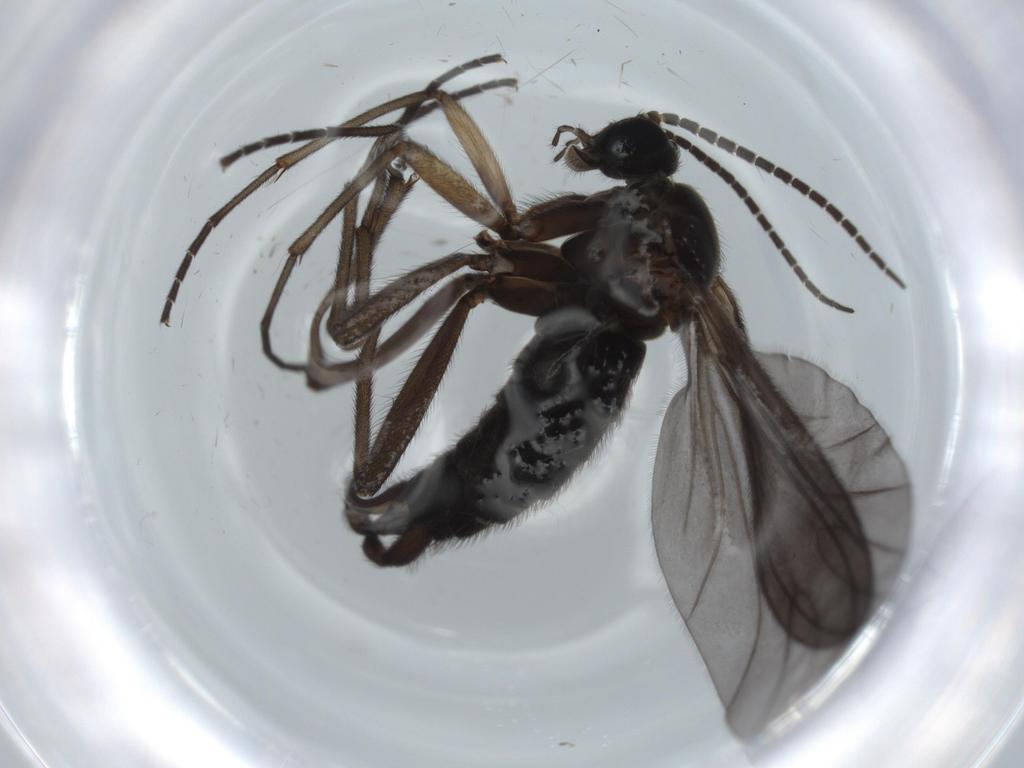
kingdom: Animalia
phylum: Arthropoda
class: Insecta
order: Diptera
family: Sciaridae
